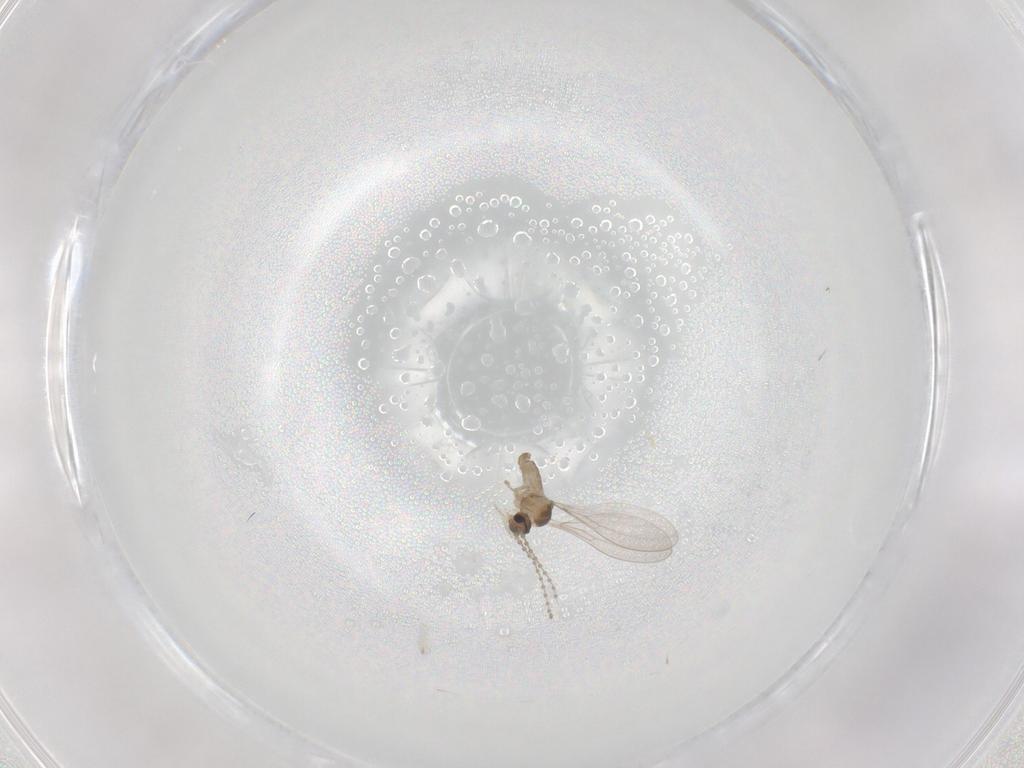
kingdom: Animalia
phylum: Arthropoda
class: Insecta
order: Diptera
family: Cecidomyiidae
